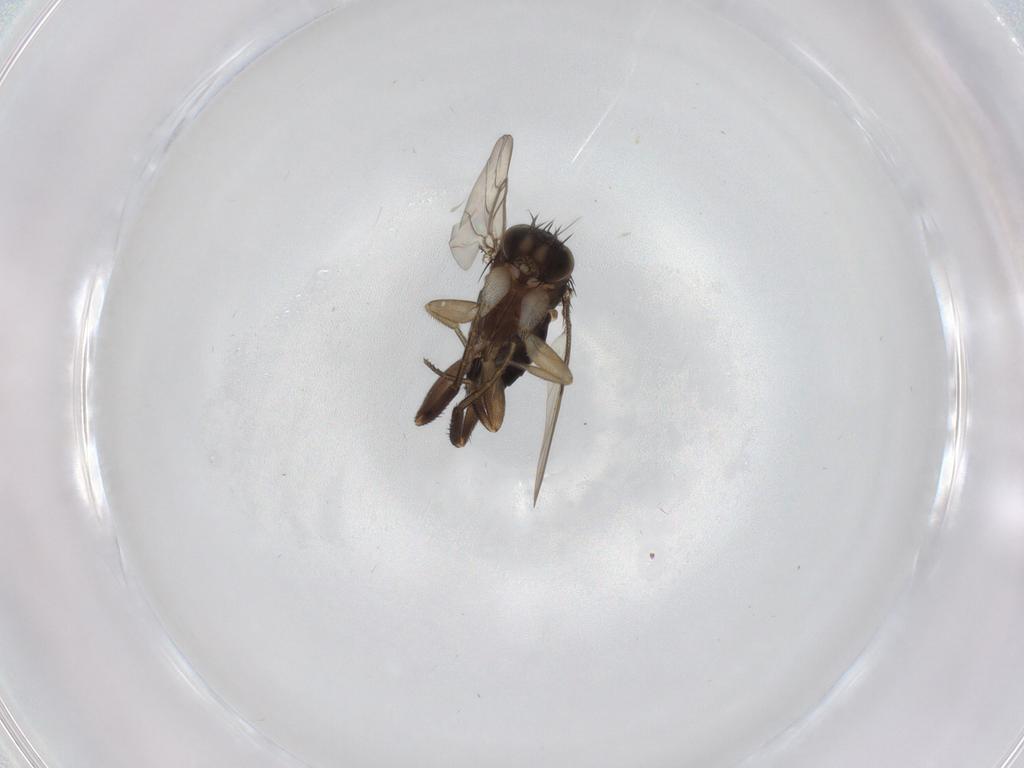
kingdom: Animalia
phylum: Arthropoda
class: Insecta
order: Diptera
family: Phoridae
